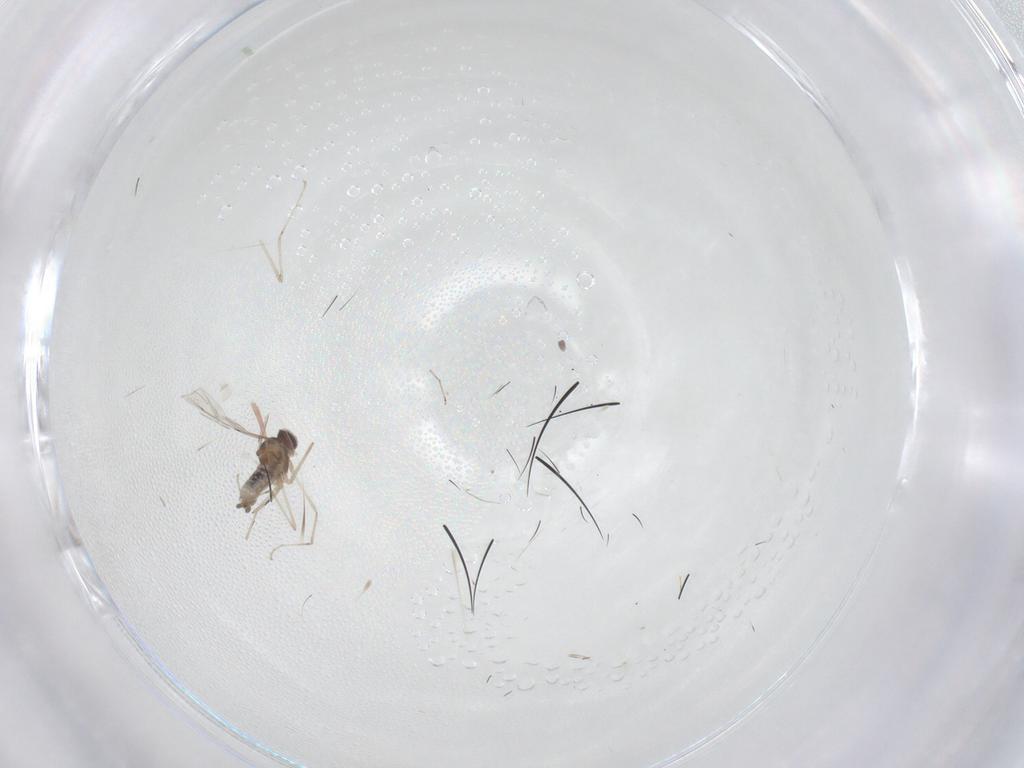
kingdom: Animalia
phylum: Arthropoda
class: Insecta
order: Diptera
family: Cecidomyiidae
